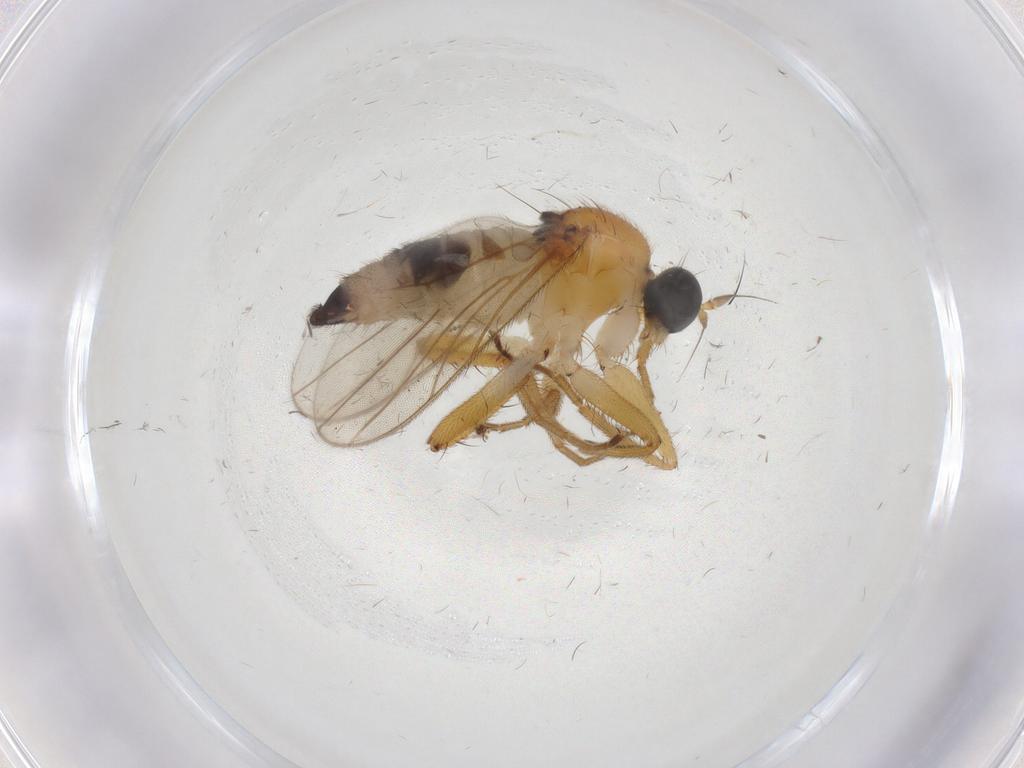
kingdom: Animalia
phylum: Arthropoda
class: Insecta
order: Diptera
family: Hybotidae
